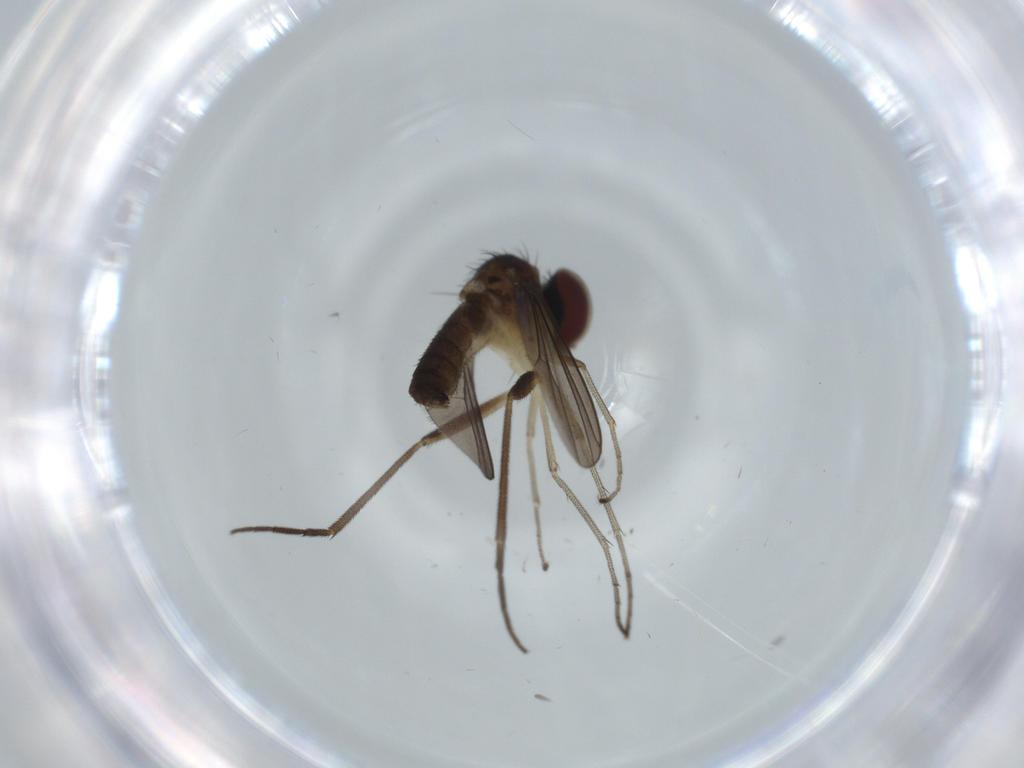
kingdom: Animalia
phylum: Arthropoda
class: Insecta
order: Diptera
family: Dolichopodidae
